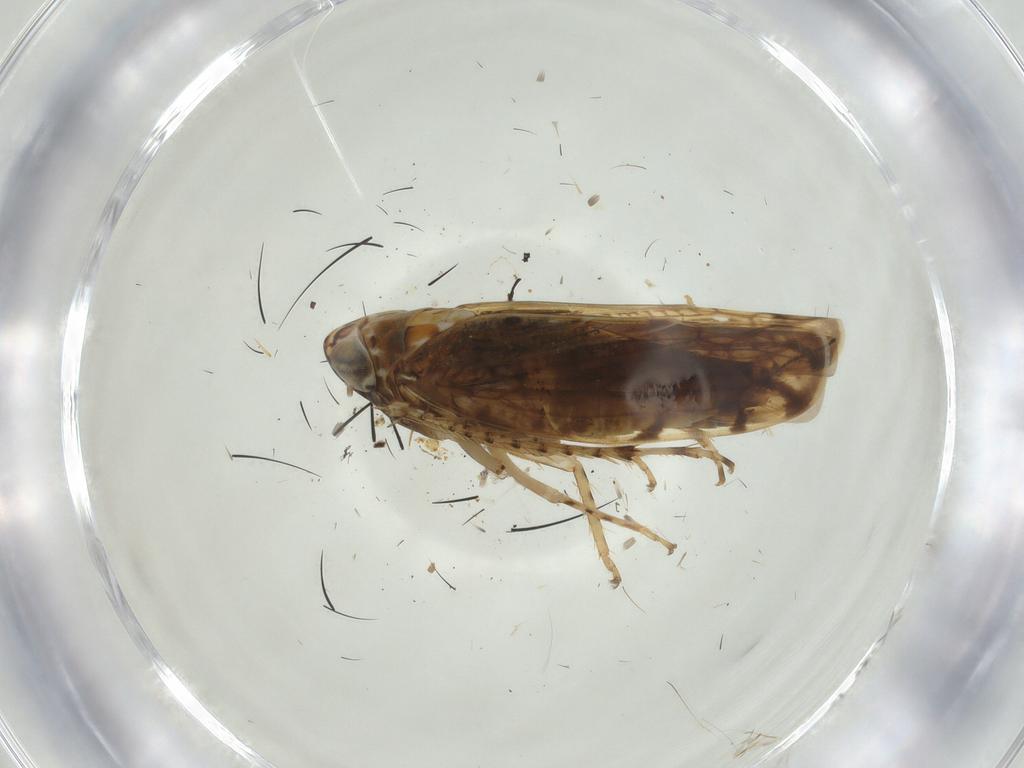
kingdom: Animalia
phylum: Arthropoda
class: Insecta
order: Hemiptera
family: Cicadellidae
